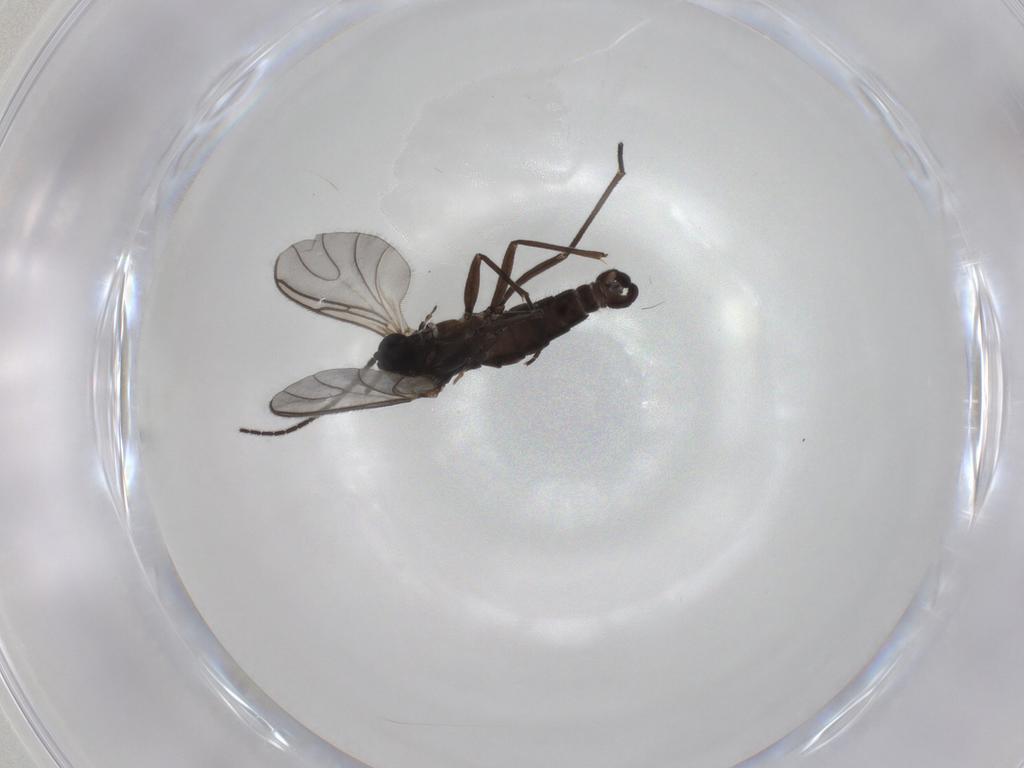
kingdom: Animalia
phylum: Arthropoda
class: Insecta
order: Diptera
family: Sciaridae
